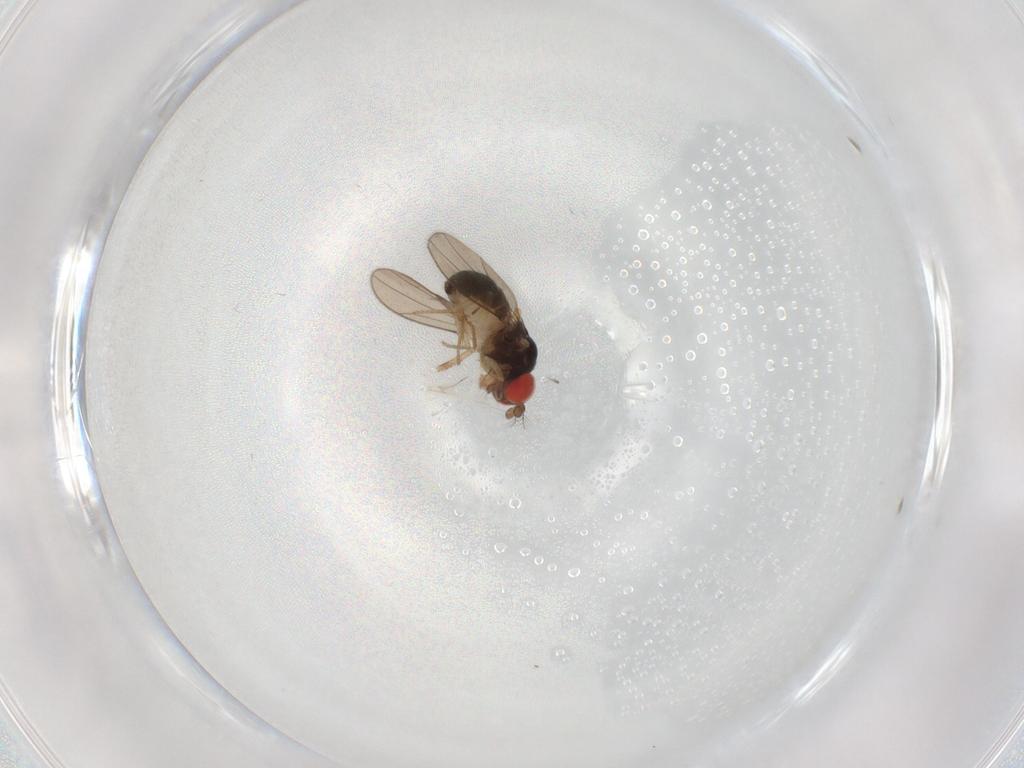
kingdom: Animalia
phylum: Arthropoda
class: Insecta
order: Diptera
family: Drosophilidae
